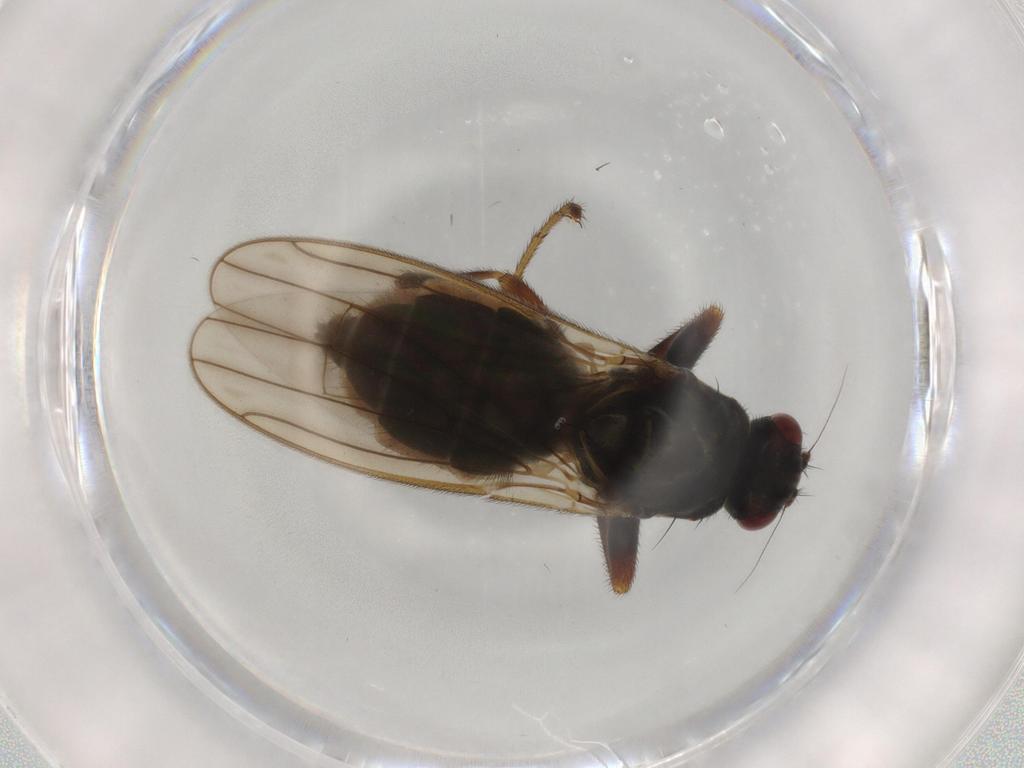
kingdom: Animalia
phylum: Arthropoda
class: Insecta
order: Diptera
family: Sphaeroceridae
